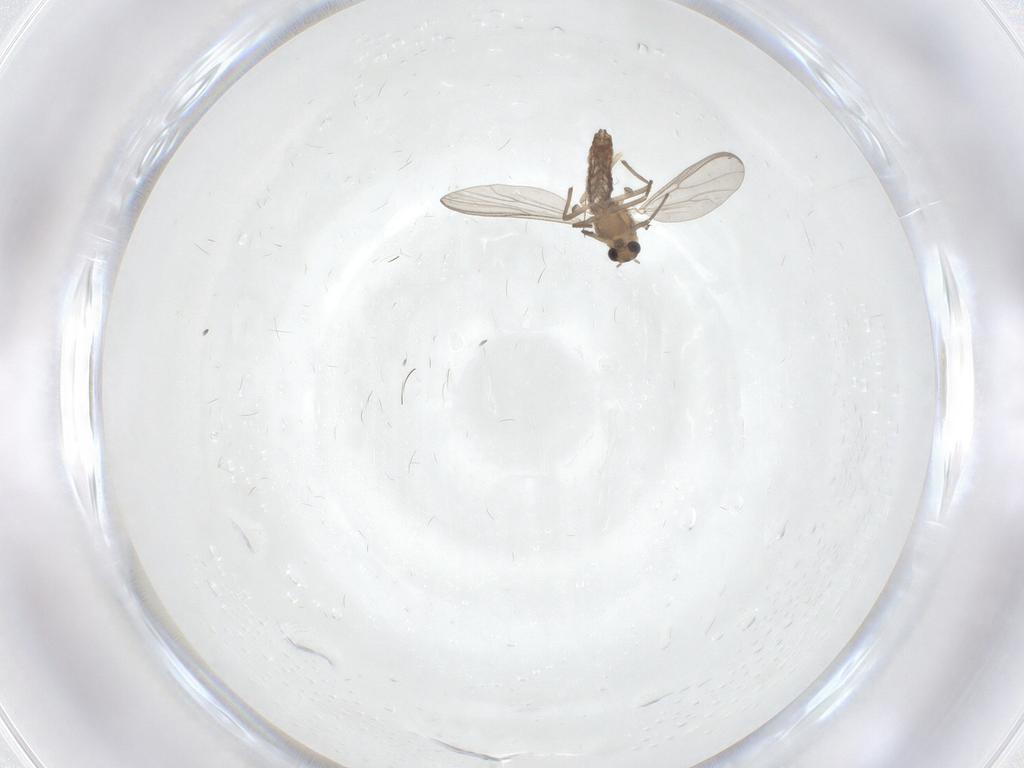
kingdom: Animalia
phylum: Arthropoda
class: Insecta
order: Diptera
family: Chironomidae
